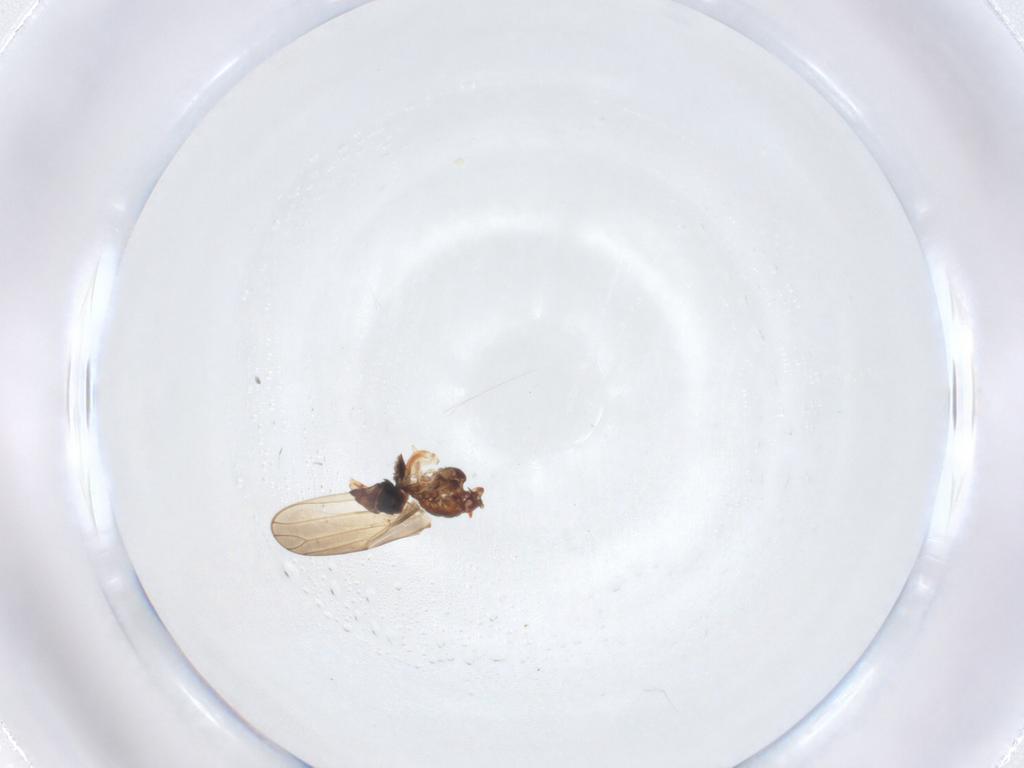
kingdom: Animalia
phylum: Arthropoda
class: Insecta
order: Hemiptera
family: Aphalaridae
